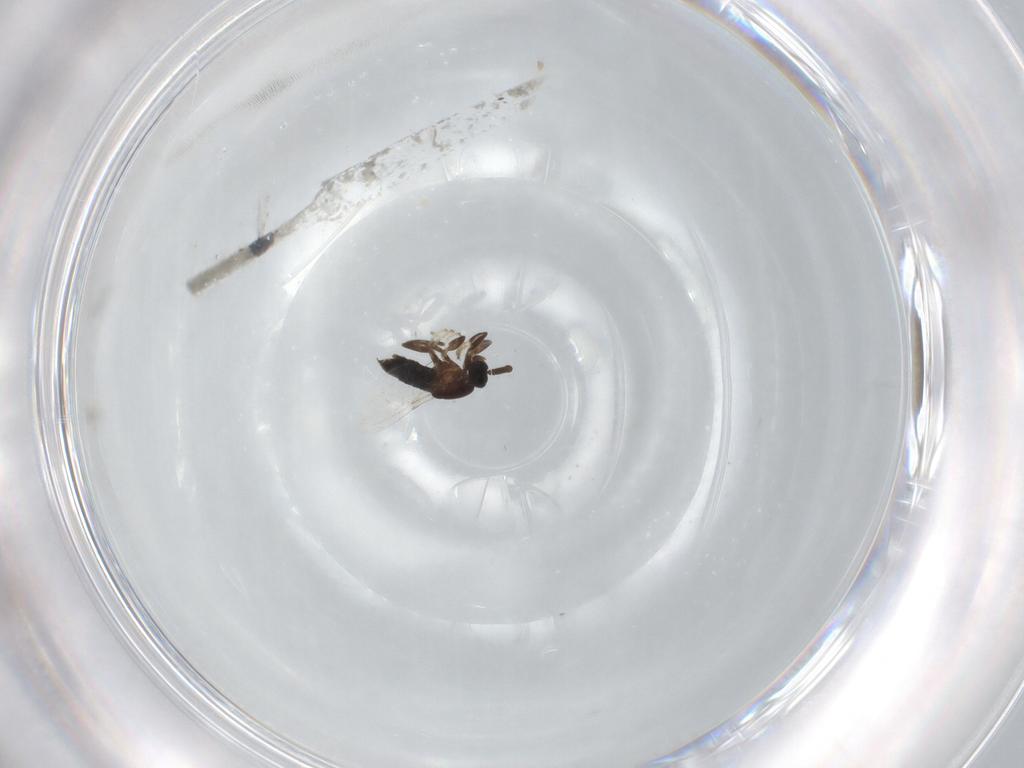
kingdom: Animalia
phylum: Arthropoda
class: Insecta
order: Diptera
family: Scatopsidae
